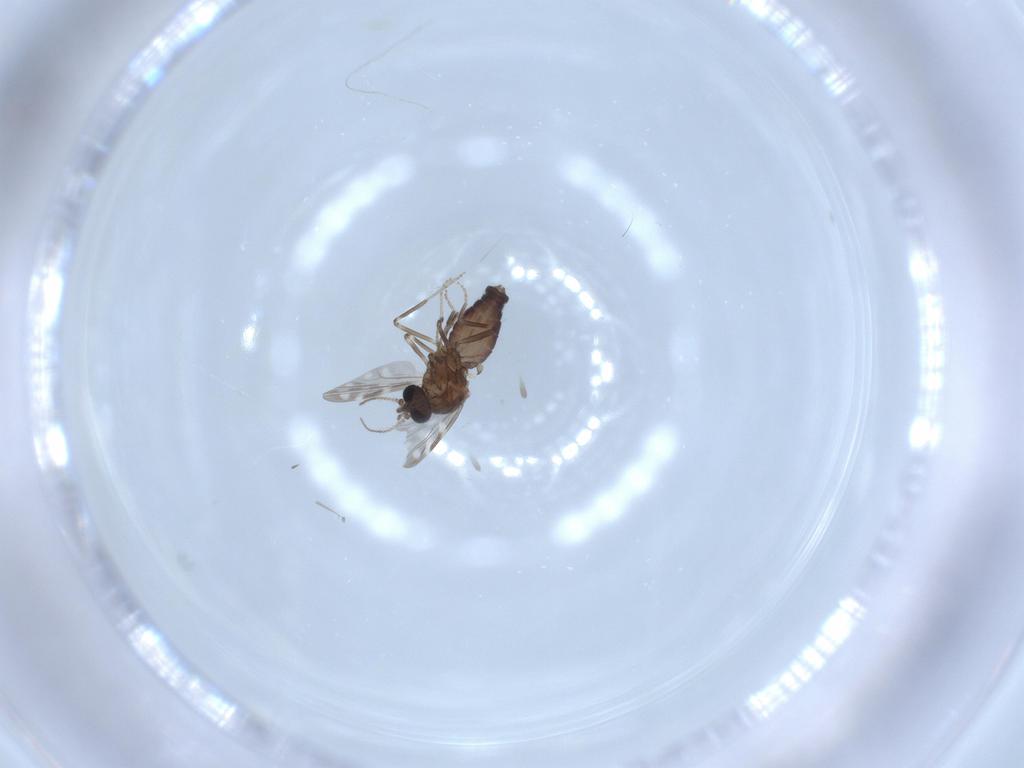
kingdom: Animalia
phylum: Arthropoda
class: Insecta
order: Diptera
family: Ceratopogonidae
